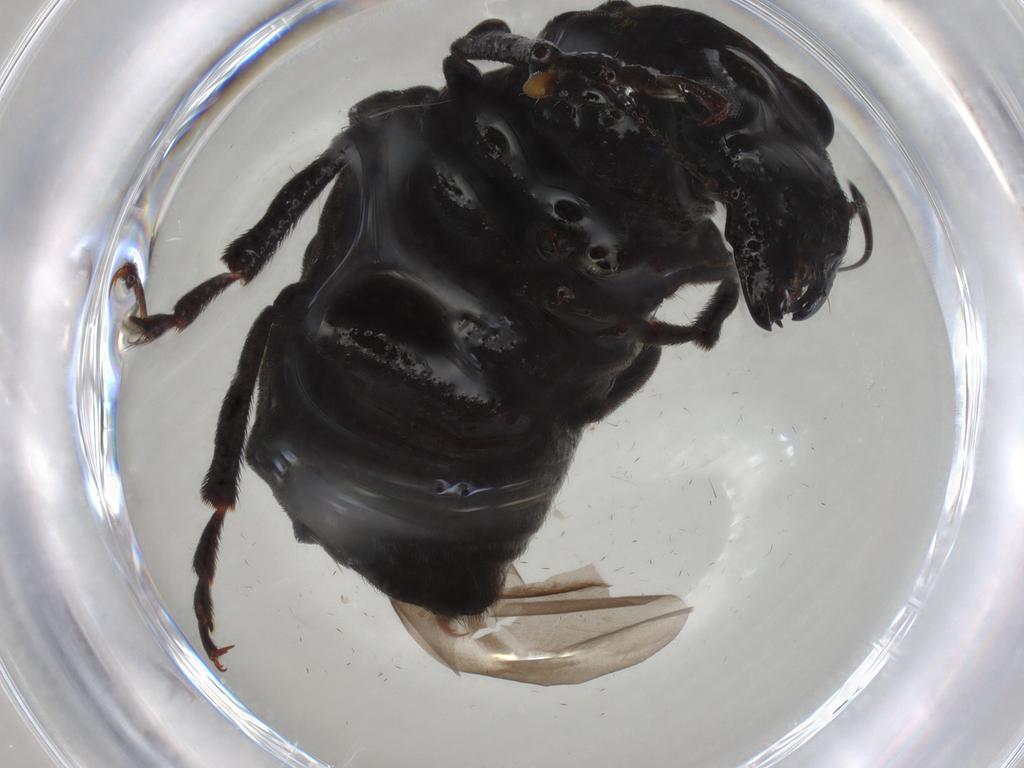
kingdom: Animalia
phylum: Arthropoda
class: Insecta
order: Coleoptera
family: Anthribidae
